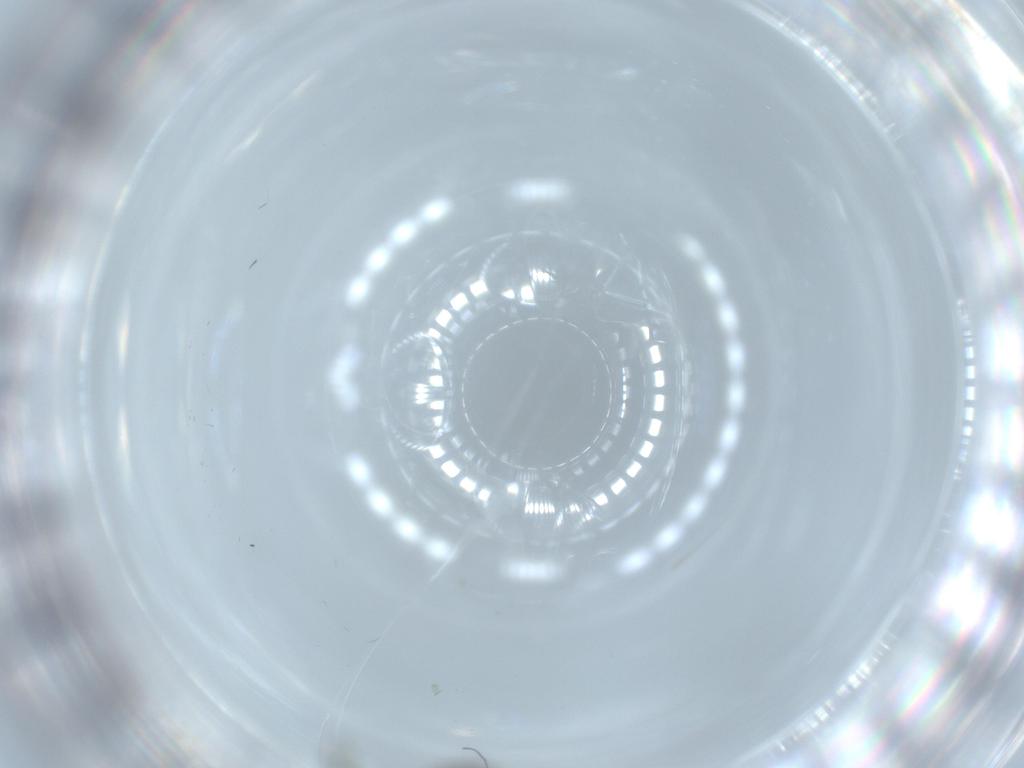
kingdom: Animalia
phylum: Arthropoda
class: Insecta
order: Diptera
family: Sciaridae
